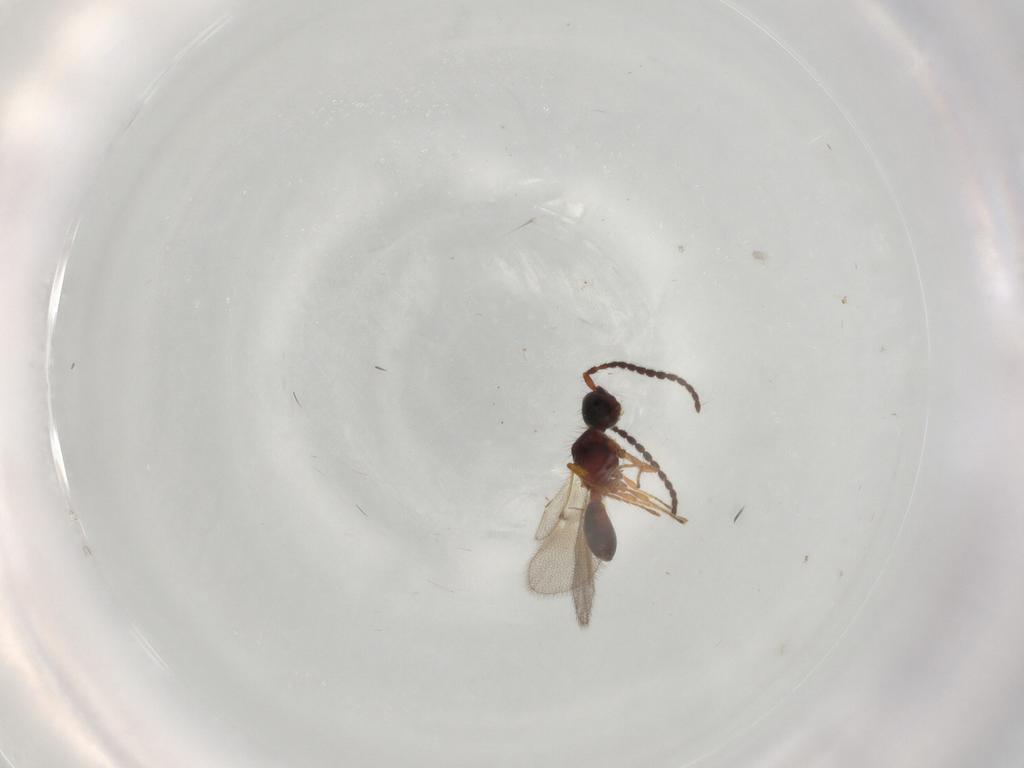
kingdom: Animalia
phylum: Arthropoda
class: Insecta
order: Hymenoptera
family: Diapriidae
